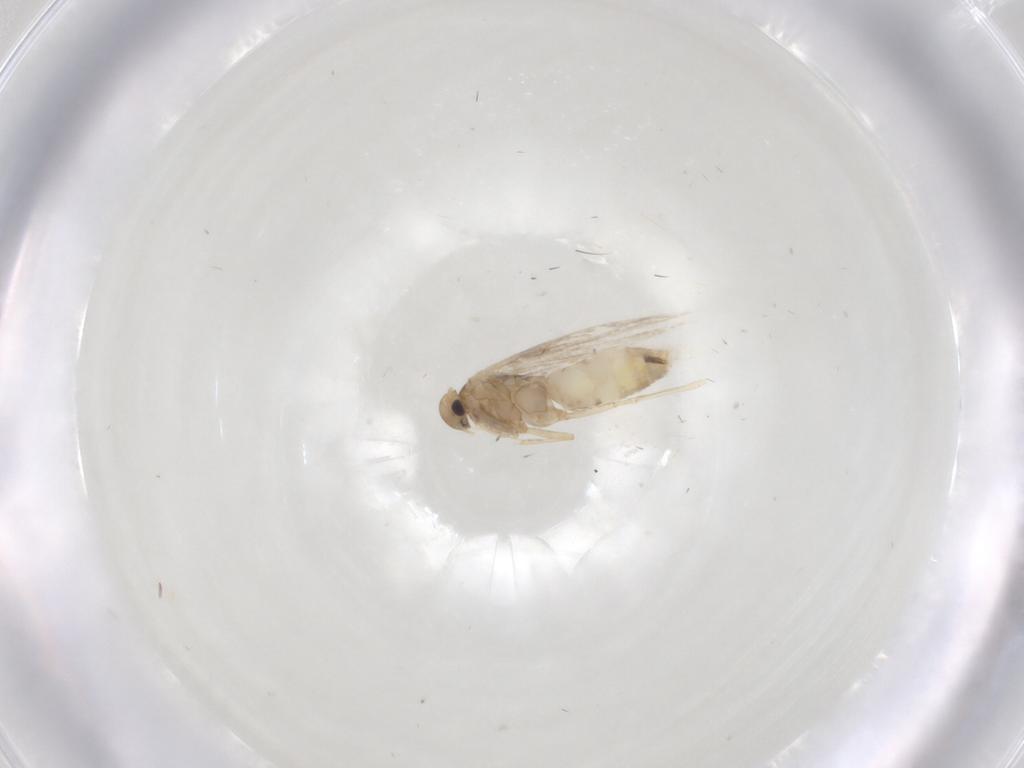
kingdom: Animalia
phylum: Arthropoda
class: Insecta
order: Lepidoptera
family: Gracillariidae
